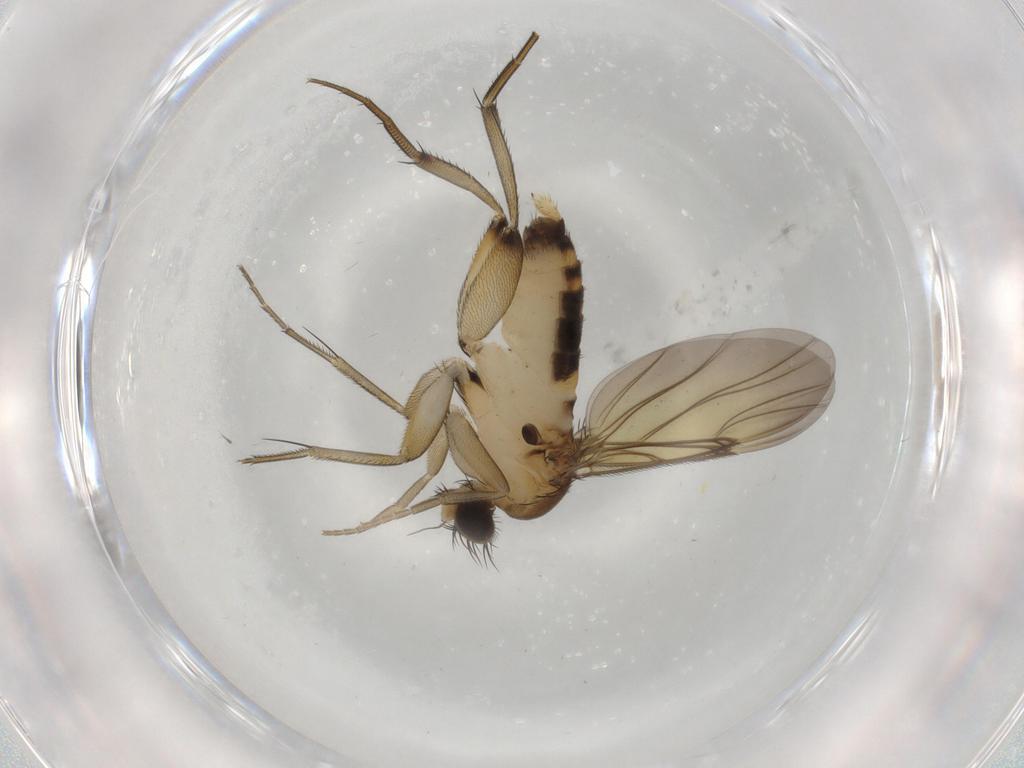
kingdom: Animalia
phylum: Arthropoda
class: Insecta
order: Diptera
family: Phoridae
